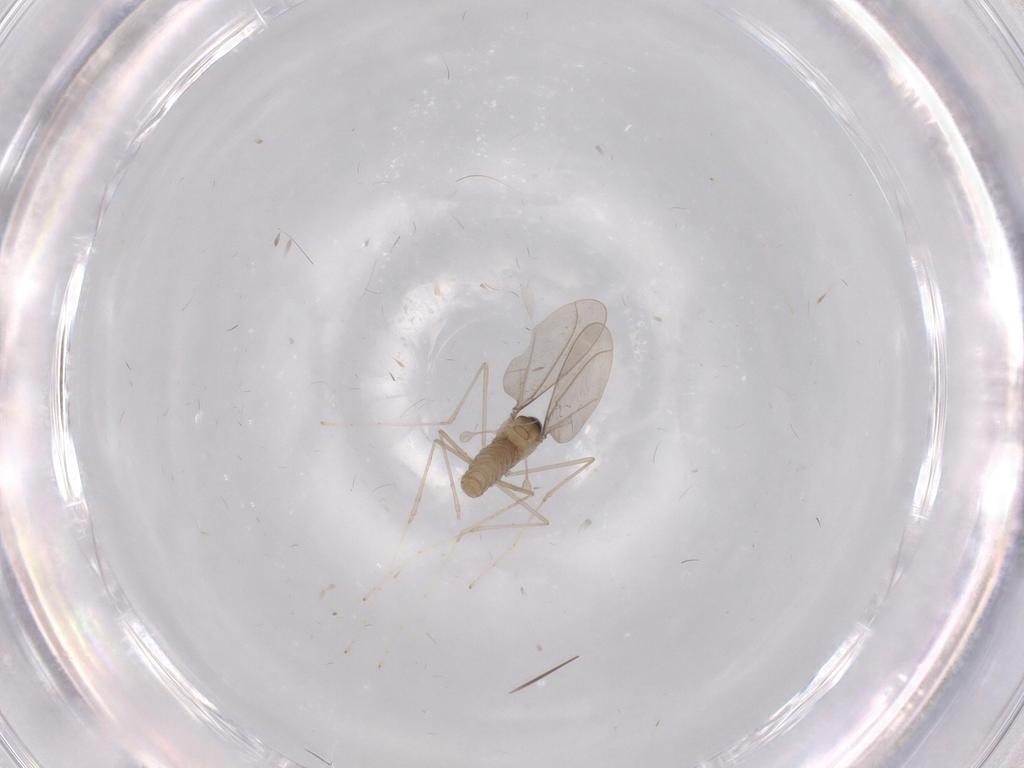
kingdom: Animalia
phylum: Arthropoda
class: Insecta
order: Diptera
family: Cecidomyiidae
